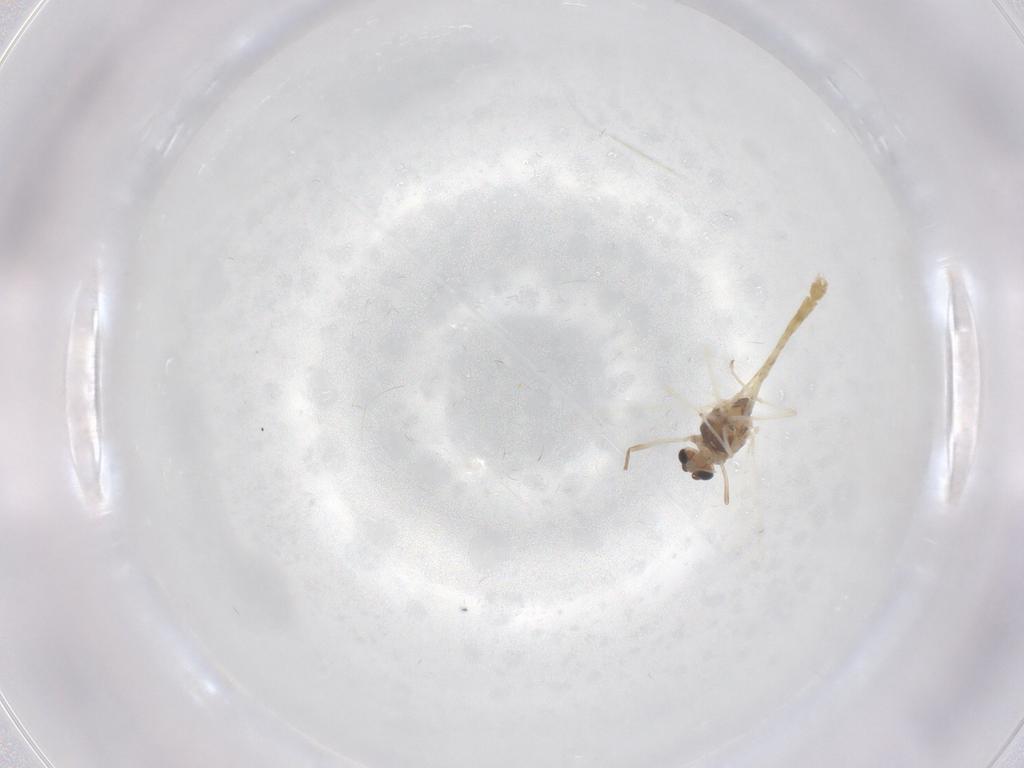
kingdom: Animalia
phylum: Arthropoda
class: Insecta
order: Diptera
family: Chironomidae
